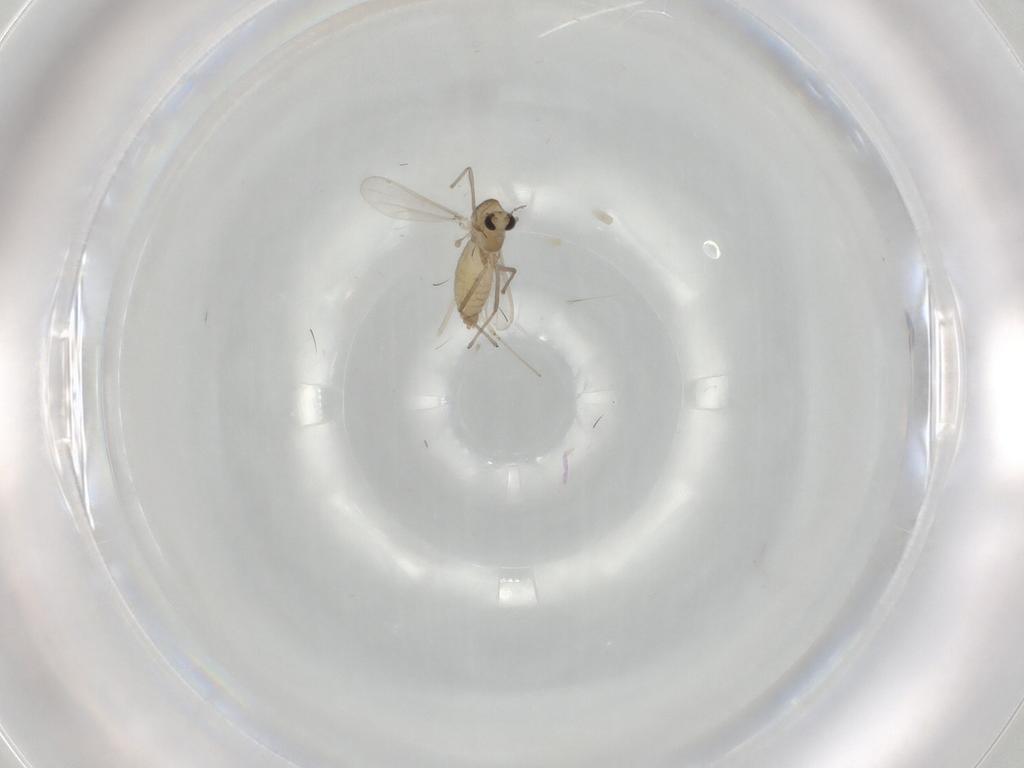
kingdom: Animalia
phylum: Arthropoda
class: Insecta
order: Diptera
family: Chironomidae
